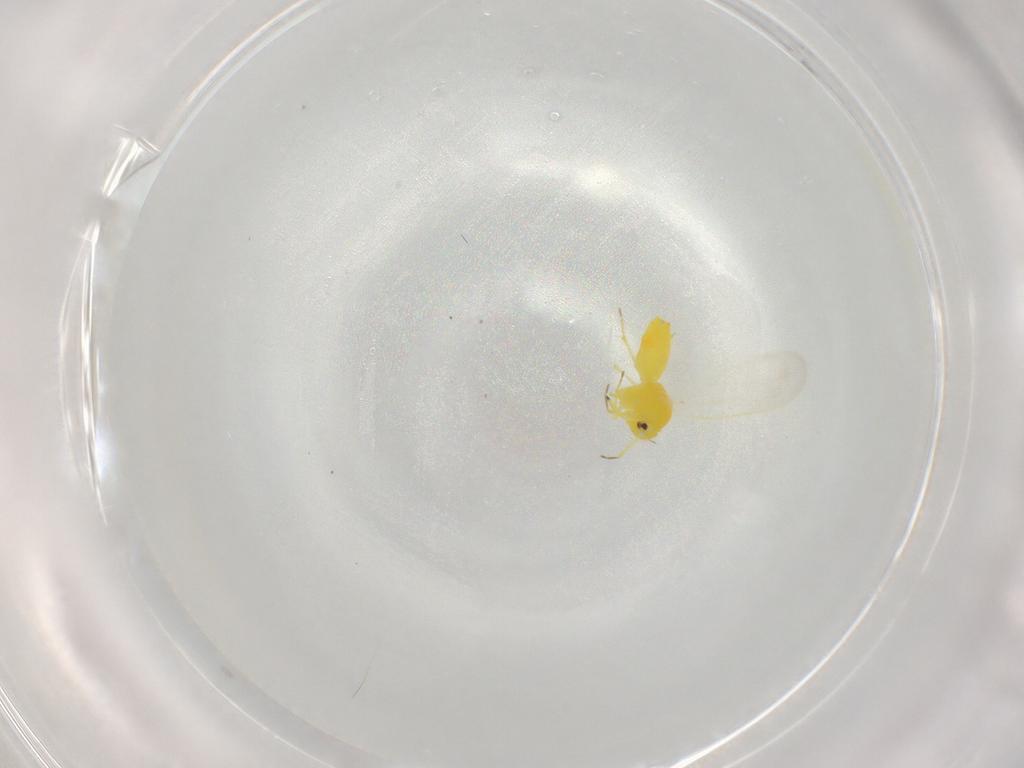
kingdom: Animalia
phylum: Arthropoda
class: Insecta
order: Hemiptera
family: Aleyrodidae
